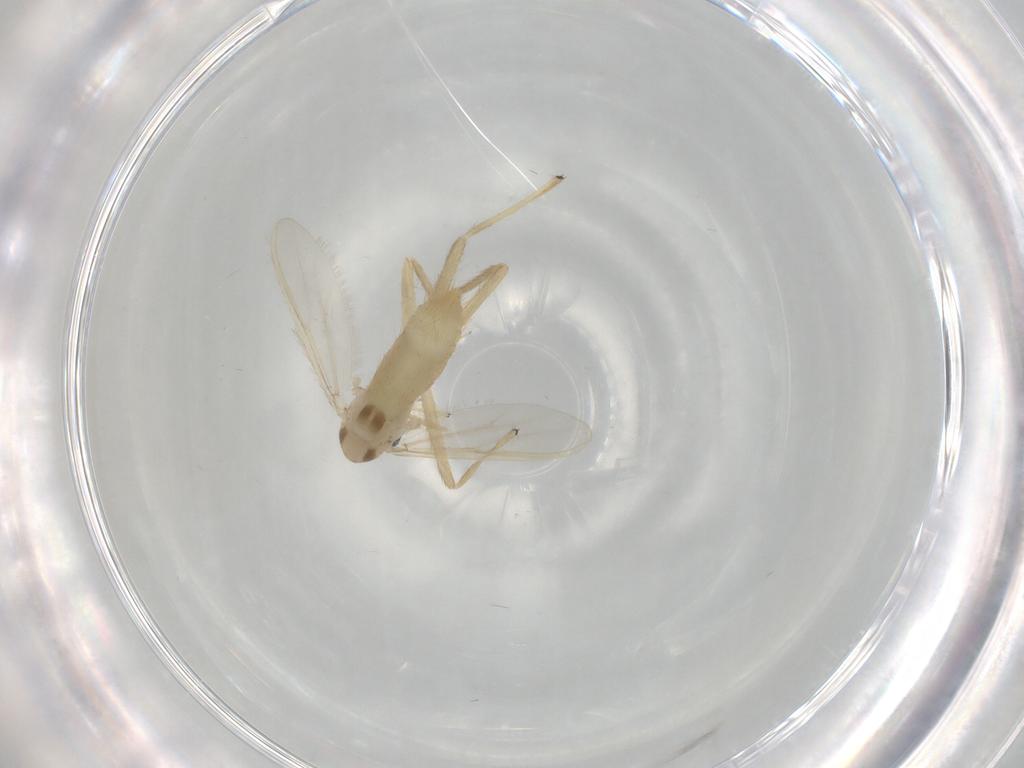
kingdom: Animalia
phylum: Arthropoda
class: Insecta
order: Diptera
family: Chironomidae
